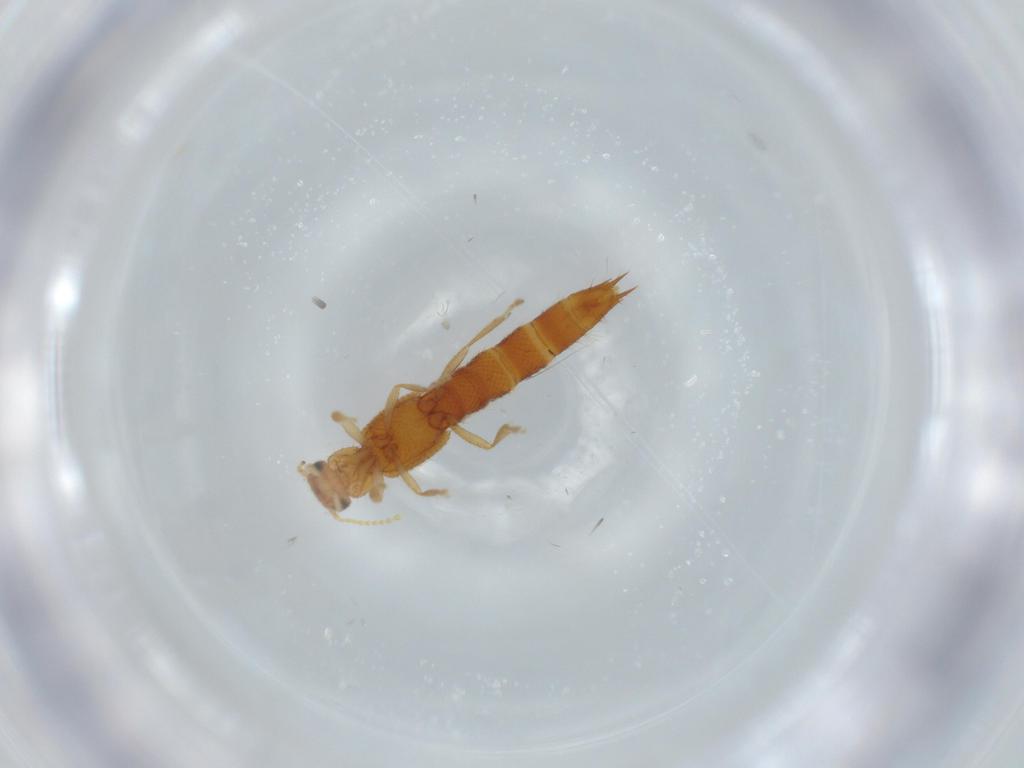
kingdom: Animalia
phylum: Arthropoda
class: Insecta
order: Coleoptera
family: Staphylinidae
